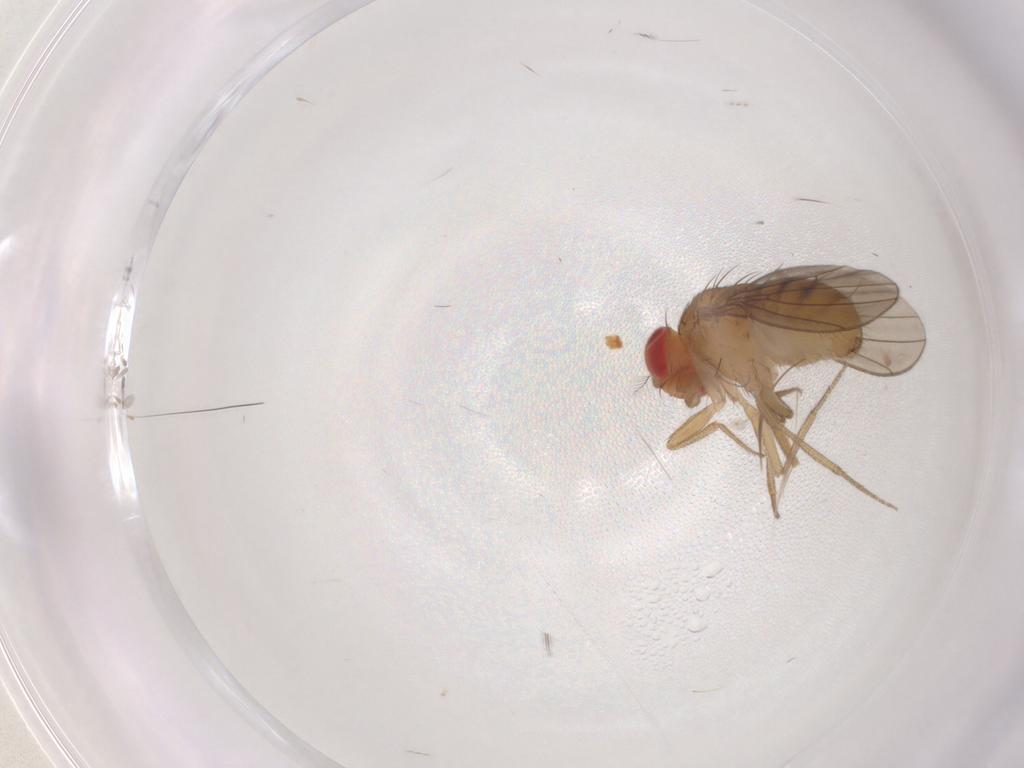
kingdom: Animalia
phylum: Arthropoda
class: Insecta
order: Diptera
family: Drosophilidae
